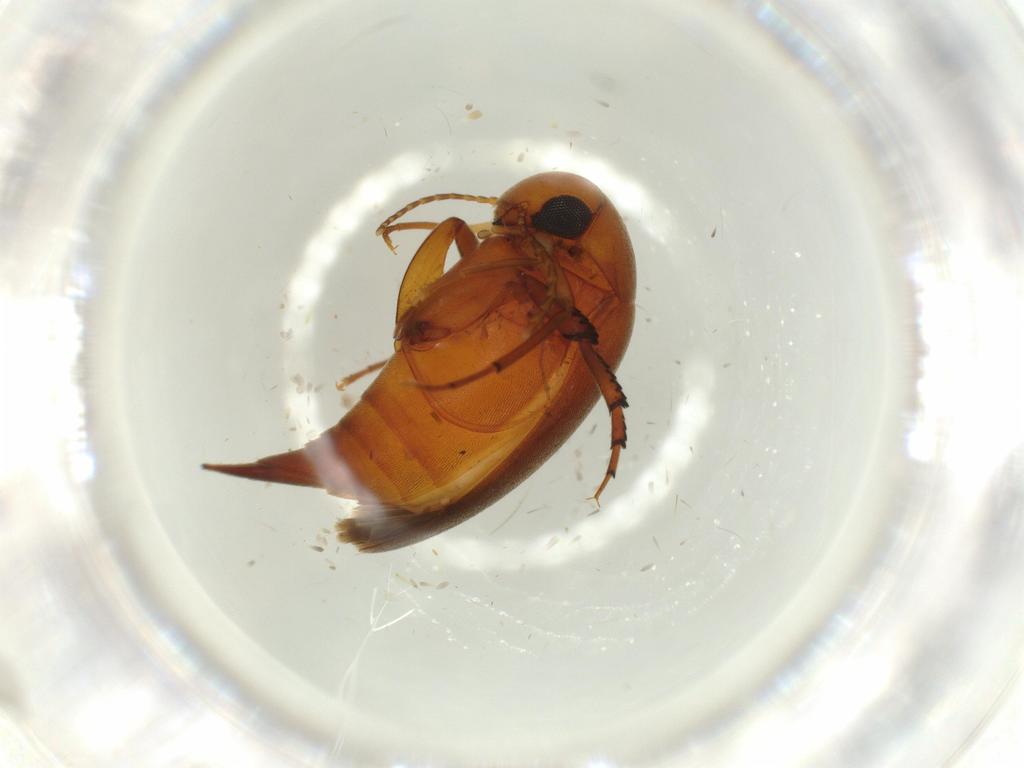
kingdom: Animalia
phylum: Arthropoda
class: Insecta
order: Coleoptera
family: Mordellidae
